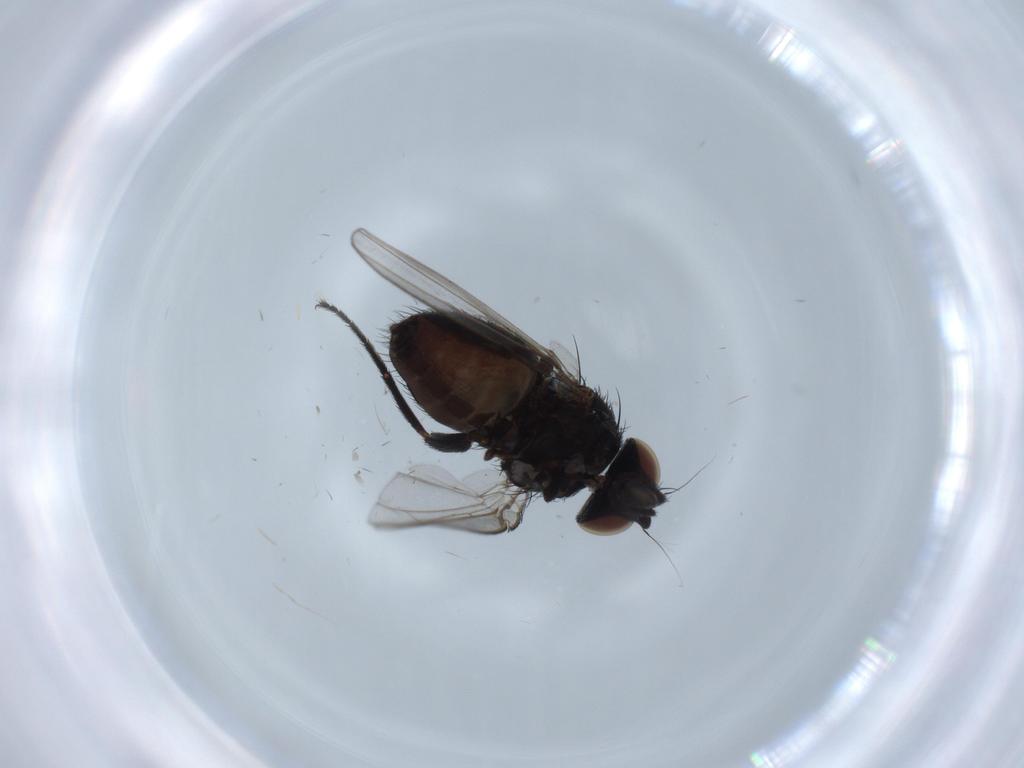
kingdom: Animalia
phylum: Arthropoda
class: Insecta
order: Diptera
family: Milichiidae
